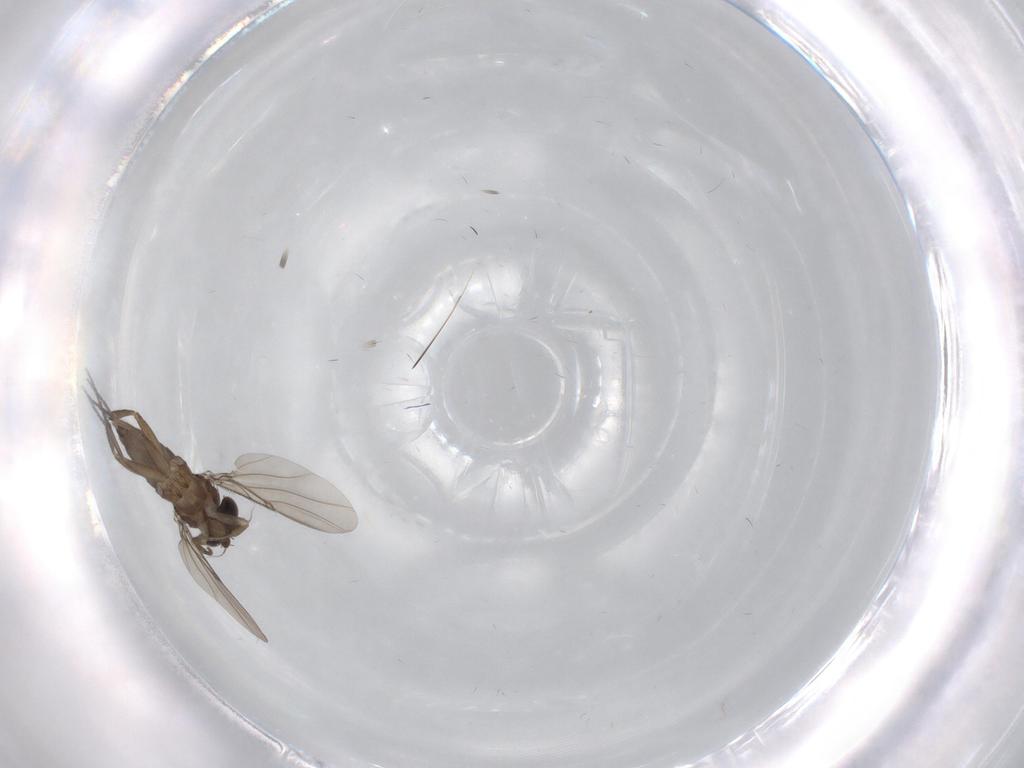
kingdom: Animalia
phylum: Arthropoda
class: Insecta
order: Diptera
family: Phoridae
